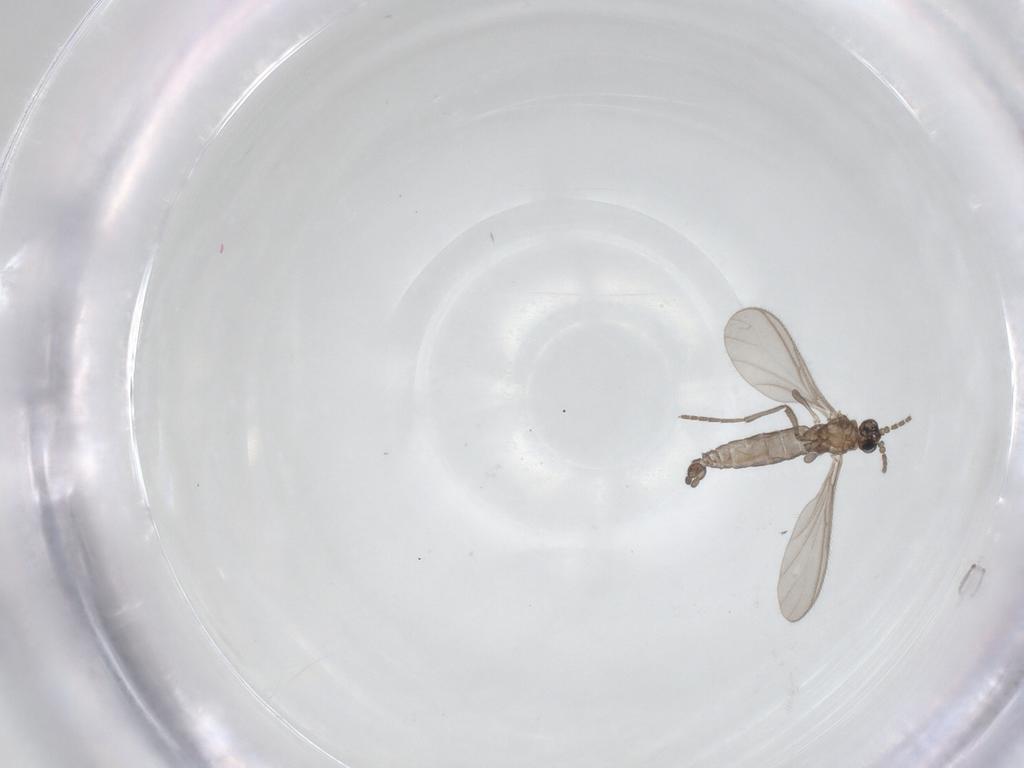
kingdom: Animalia
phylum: Arthropoda
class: Insecta
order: Diptera
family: Sciaridae
